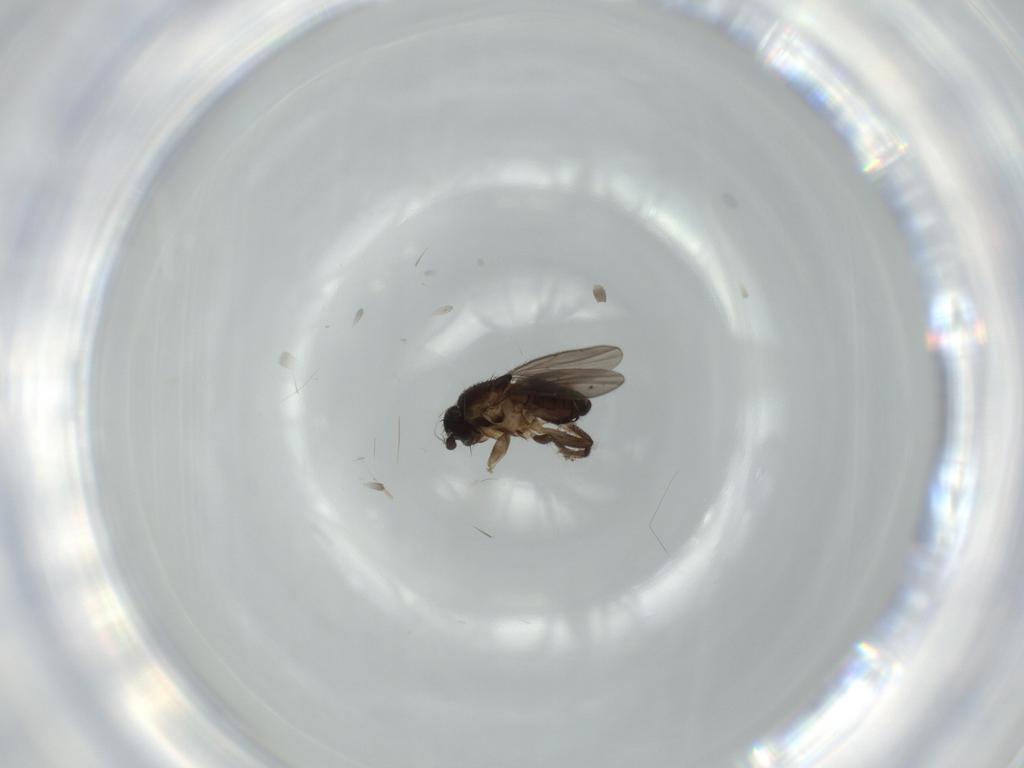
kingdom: Animalia
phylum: Arthropoda
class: Insecta
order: Diptera
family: Sphaeroceridae
